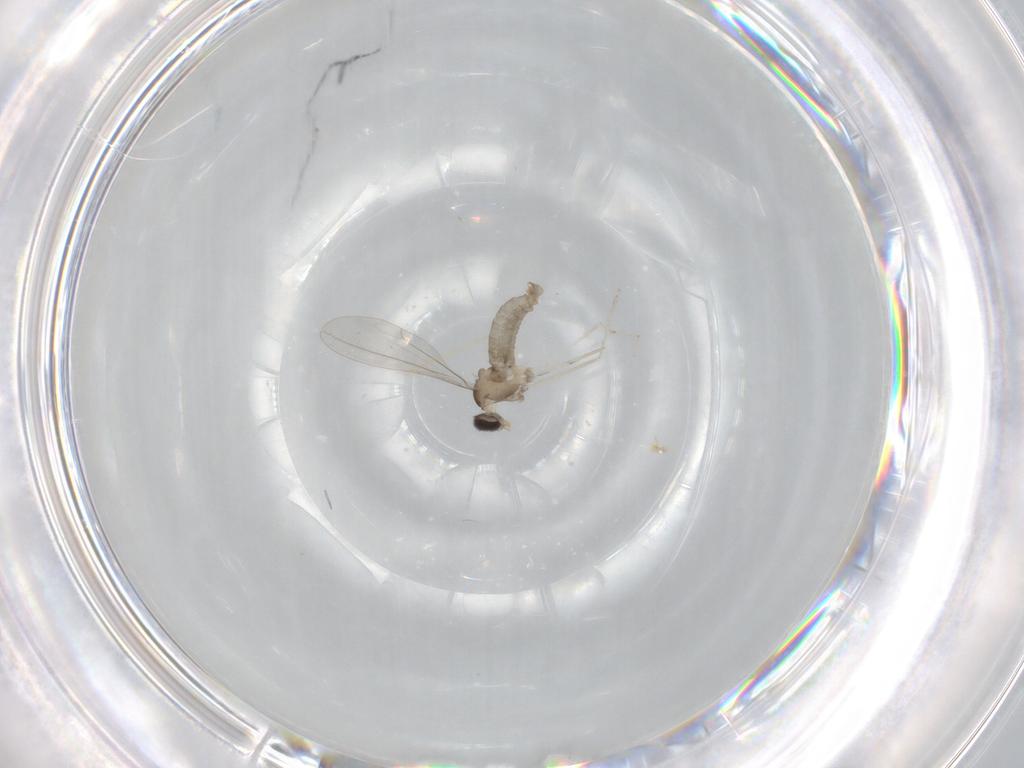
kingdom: Animalia
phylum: Arthropoda
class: Insecta
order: Diptera
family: Cecidomyiidae
